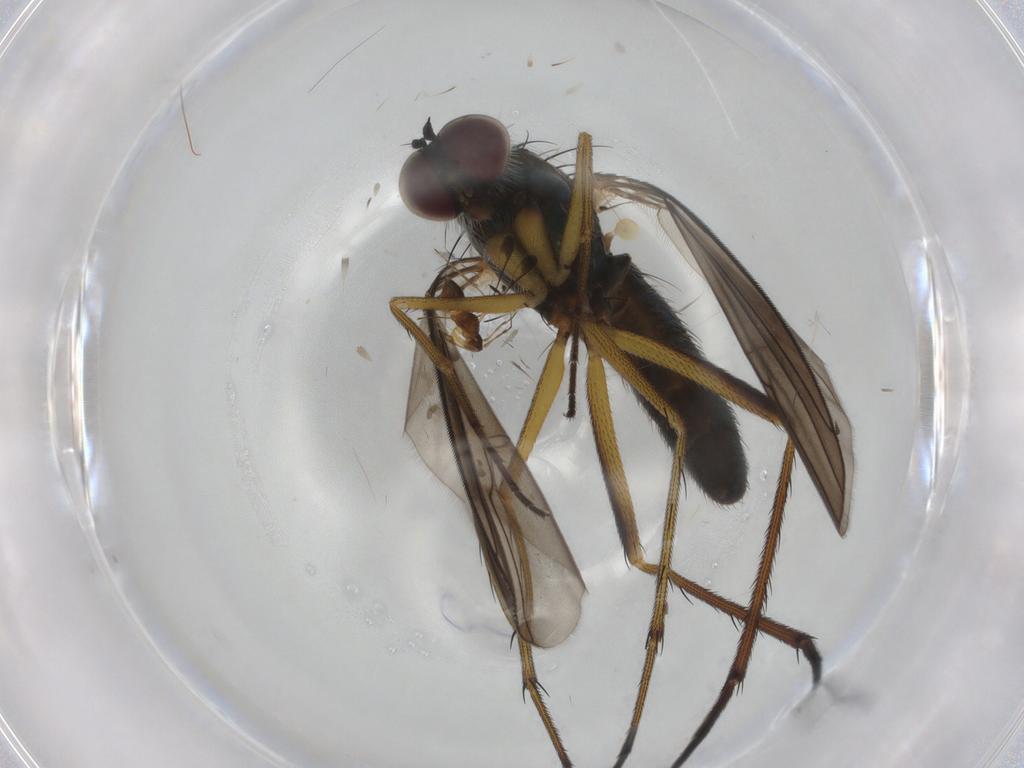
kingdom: Animalia
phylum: Arthropoda
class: Insecta
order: Diptera
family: Dolichopodidae
